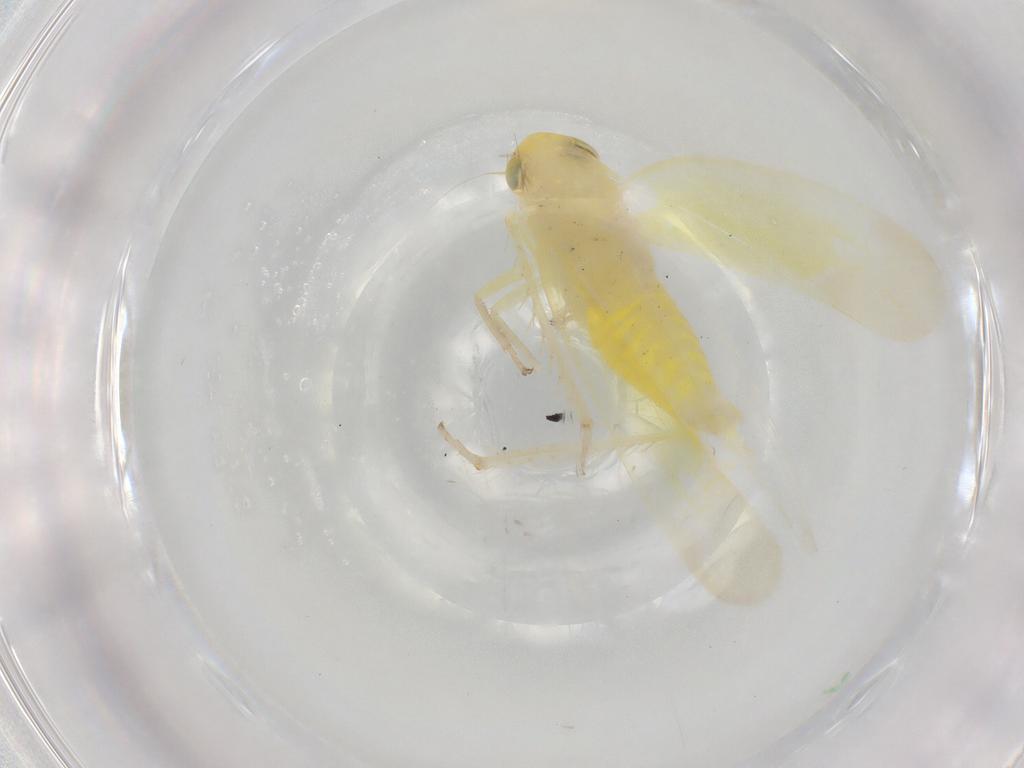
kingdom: Animalia
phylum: Arthropoda
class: Insecta
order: Hemiptera
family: Cicadellidae
